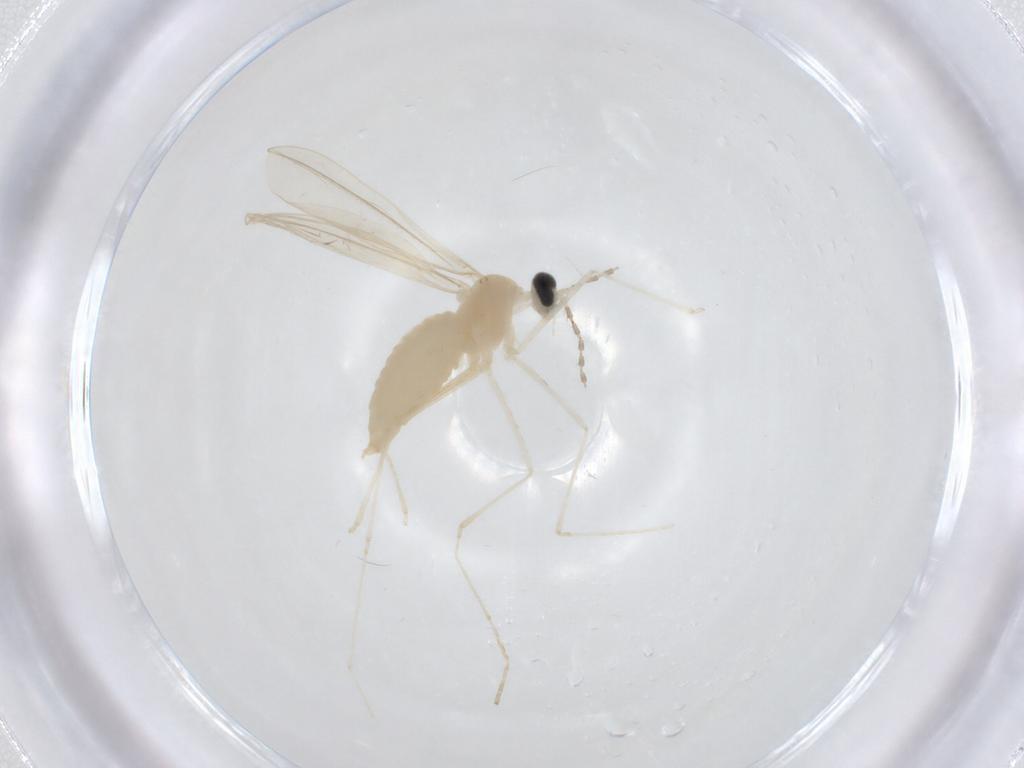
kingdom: Animalia
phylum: Arthropoda
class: Insecta
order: Diptera
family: Cecidomyiidae
